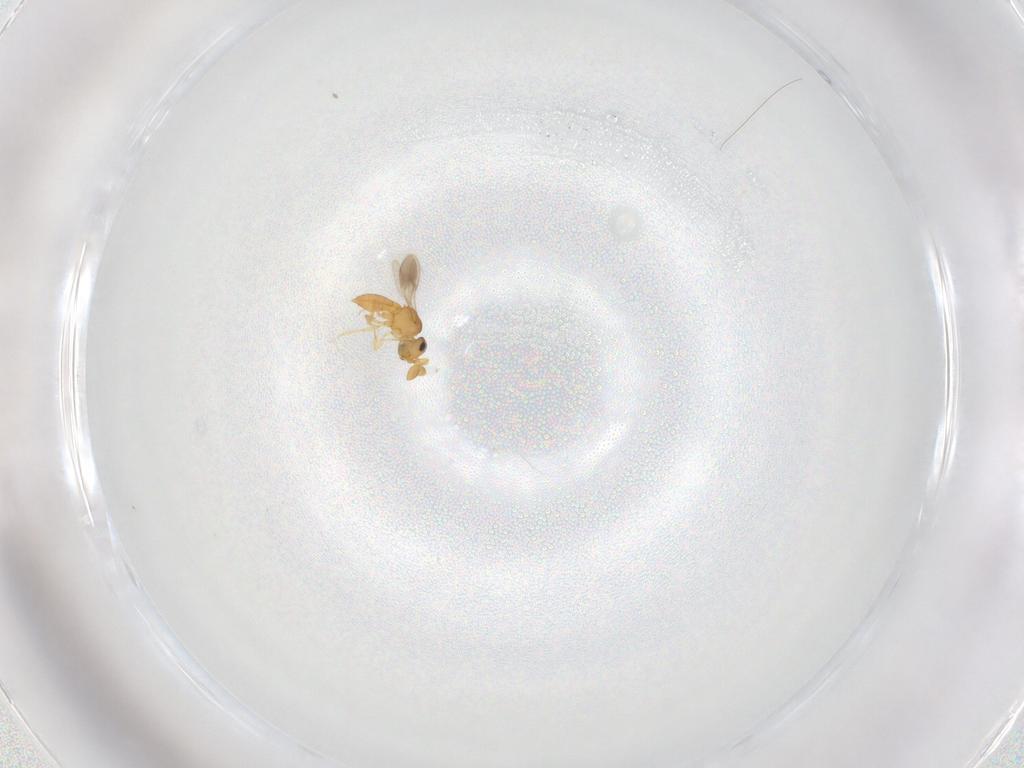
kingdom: Animalia
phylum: Arthropoda
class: Insecta
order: Hymenoptera
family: Scelionidae
